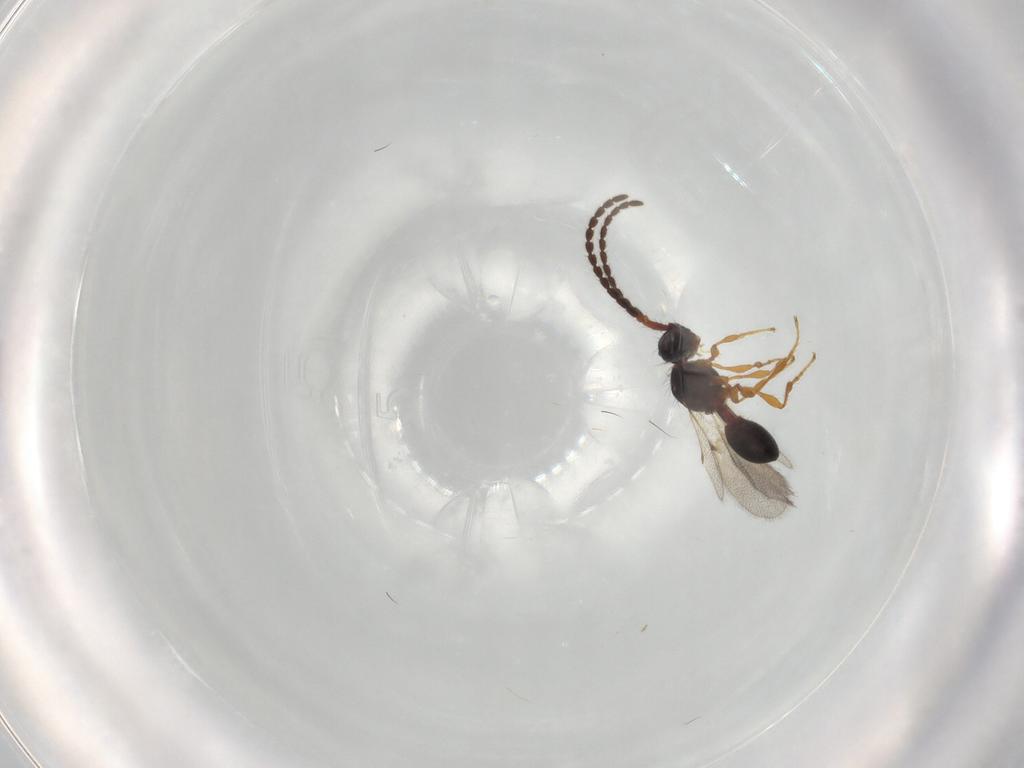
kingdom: Animalia
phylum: Arthropoda
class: Insecta
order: Hymenoptera
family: Diapriidae
